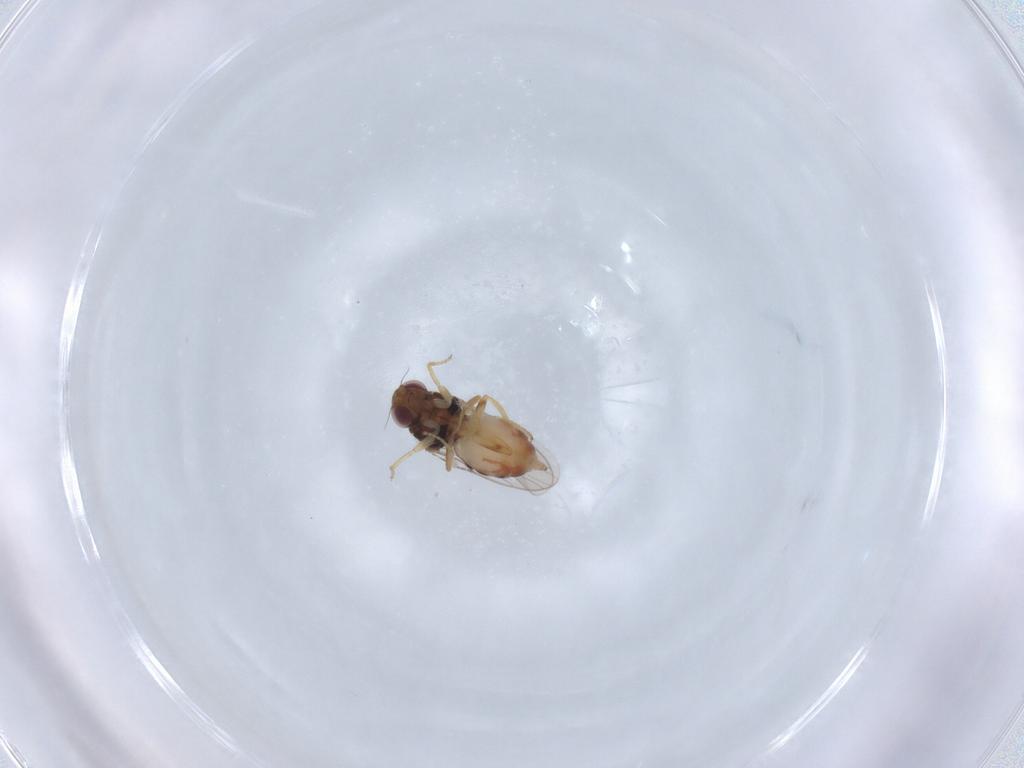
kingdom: Animalia
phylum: Arthropoda
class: Insecta
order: Diptera
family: Chloropidae
